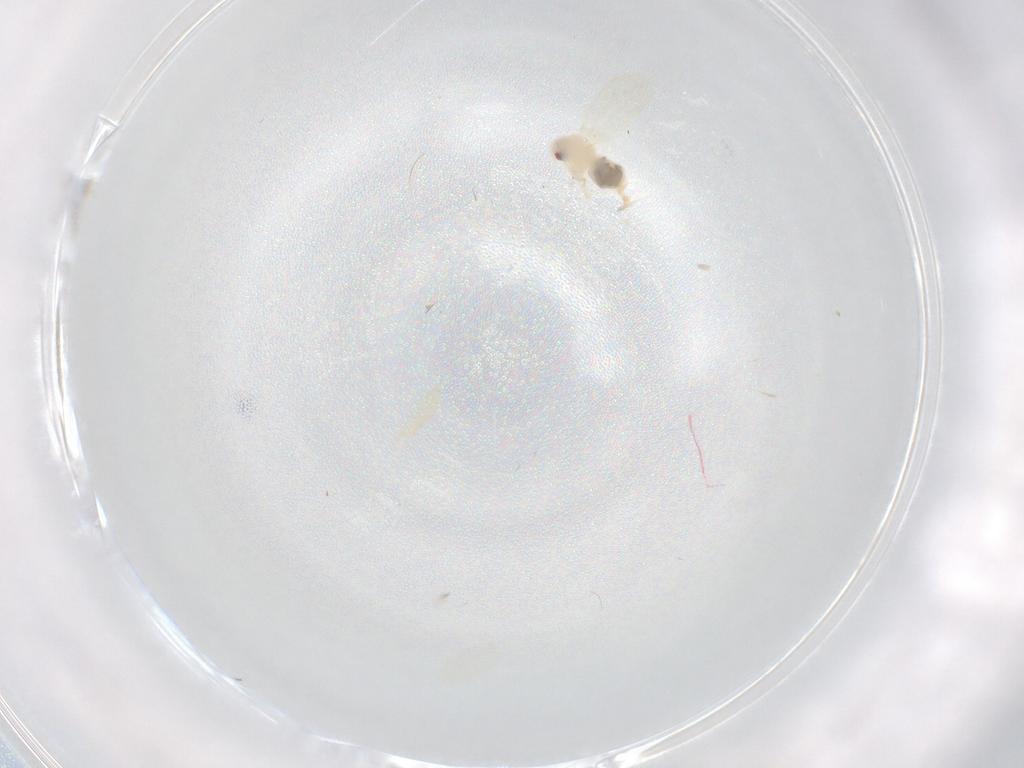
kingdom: Animalia
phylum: Arthropoda
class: Insecta
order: Hemiptera
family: Aleyrodidae
